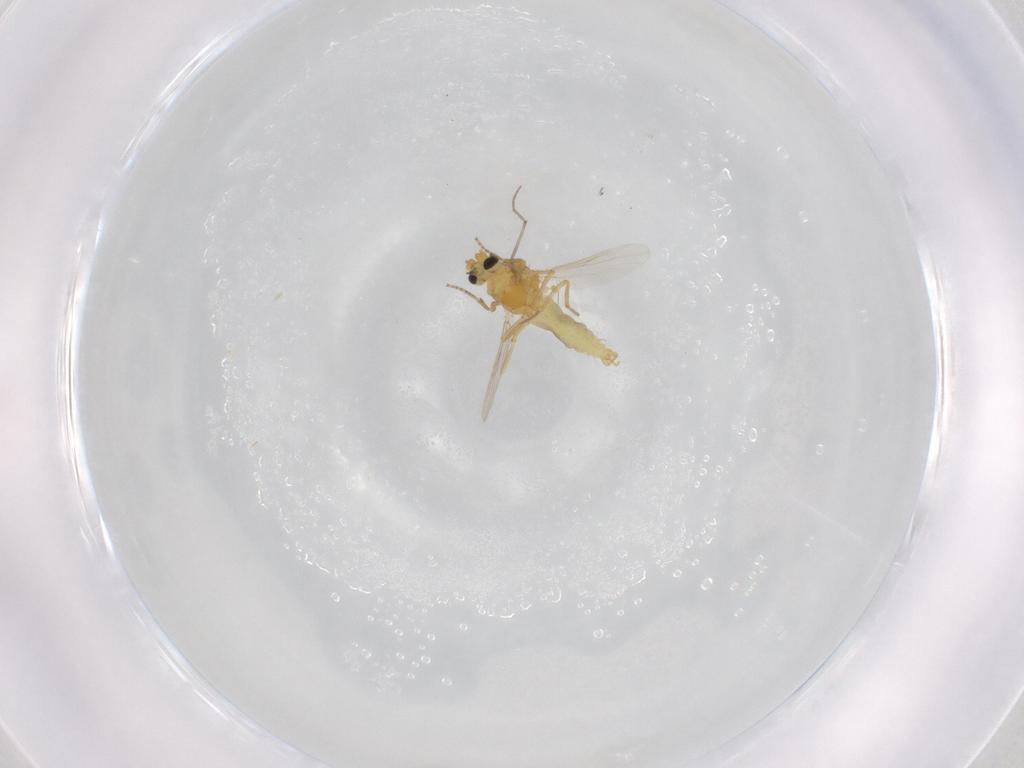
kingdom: Animalia
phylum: Arthropoda
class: Insecta
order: Diptera
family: Ceratopogonidae
